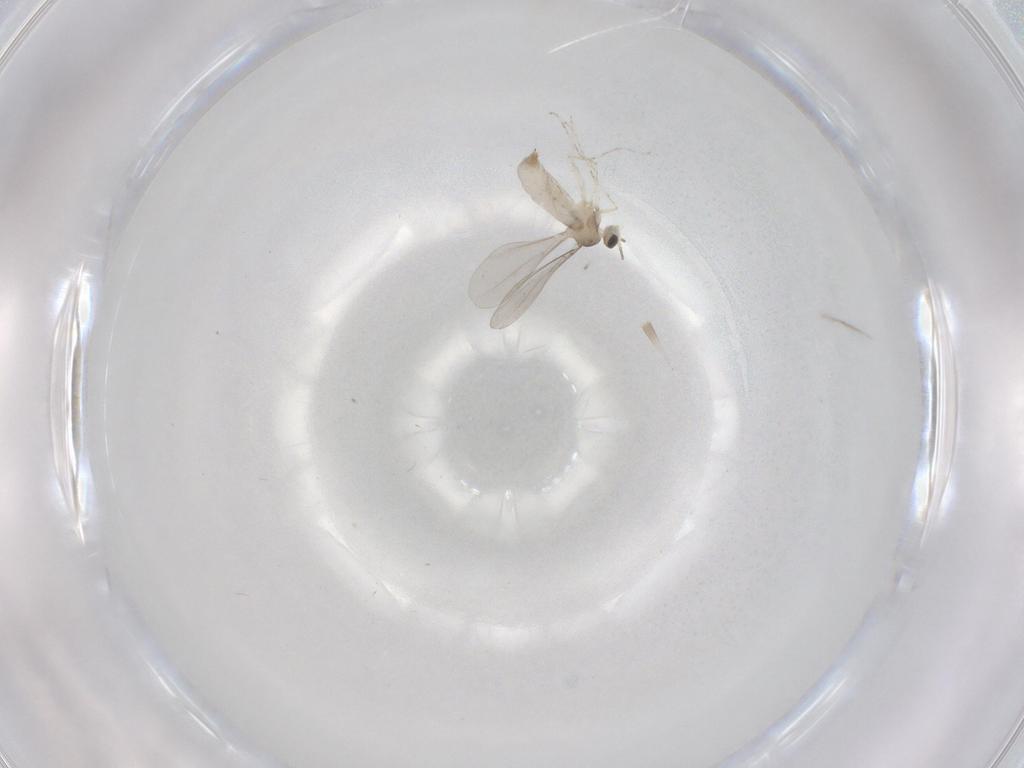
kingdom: Animalia
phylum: Arthropoda
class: Insecta
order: Diptera
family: Cecidomyiidae
